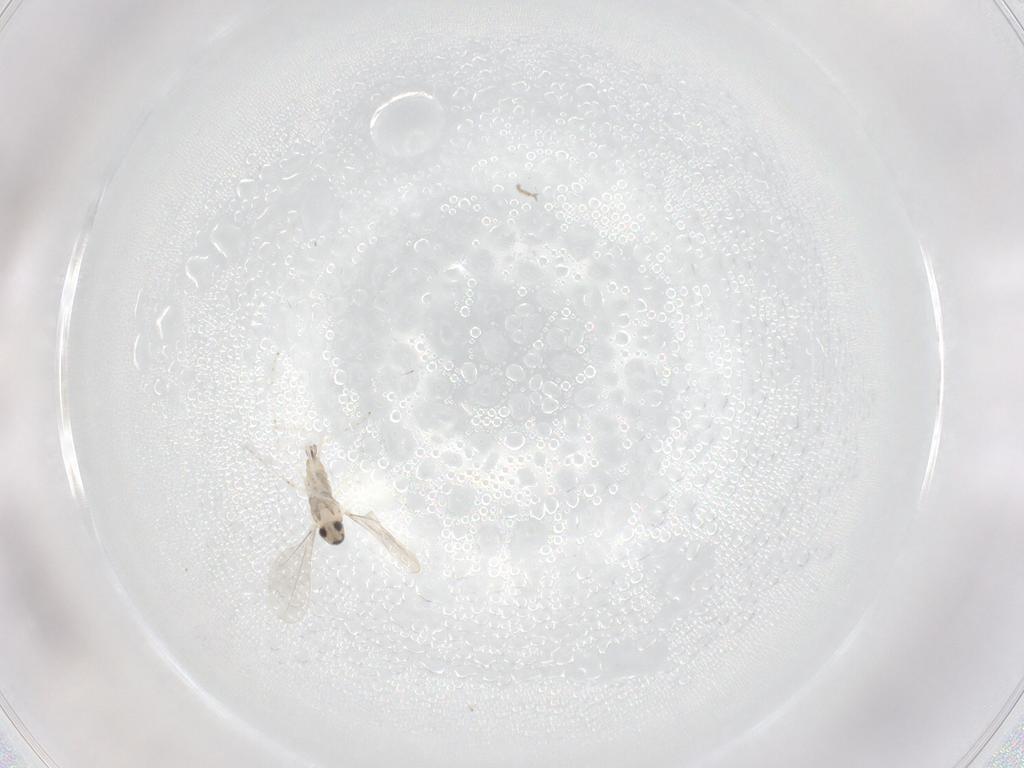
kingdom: Animalia
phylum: Arthropoda
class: Insecta
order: Diptera
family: Cecidomyiidae
